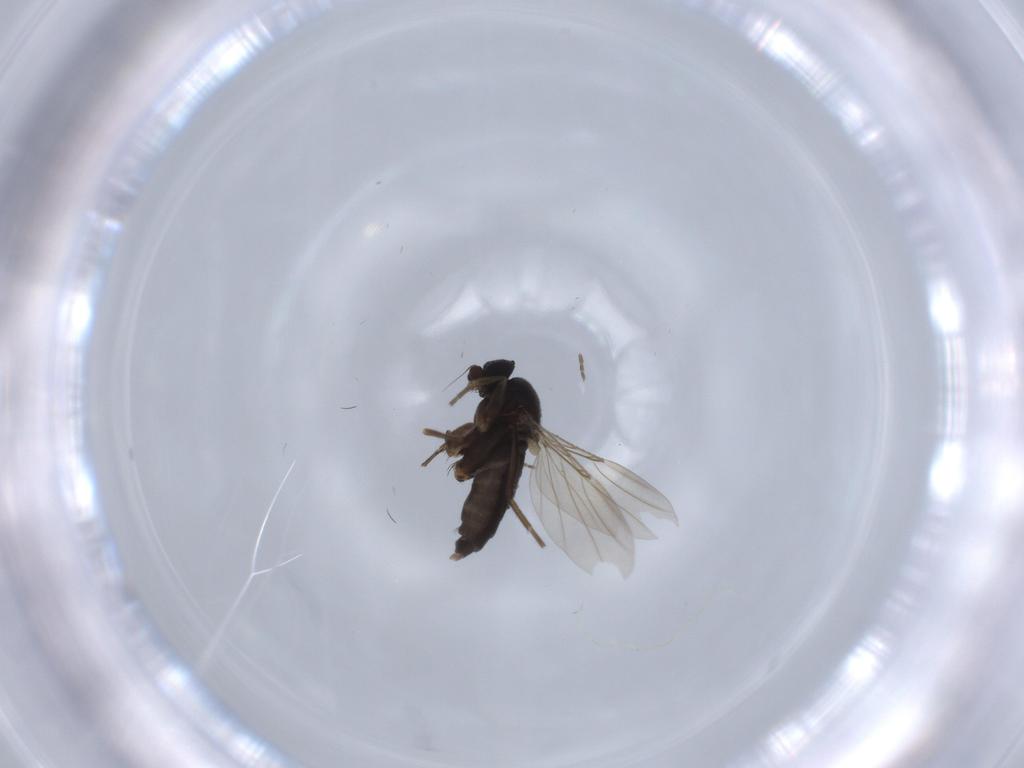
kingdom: Animalia
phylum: Arthropoda
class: Insecta
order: Diptera
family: Phoridae
